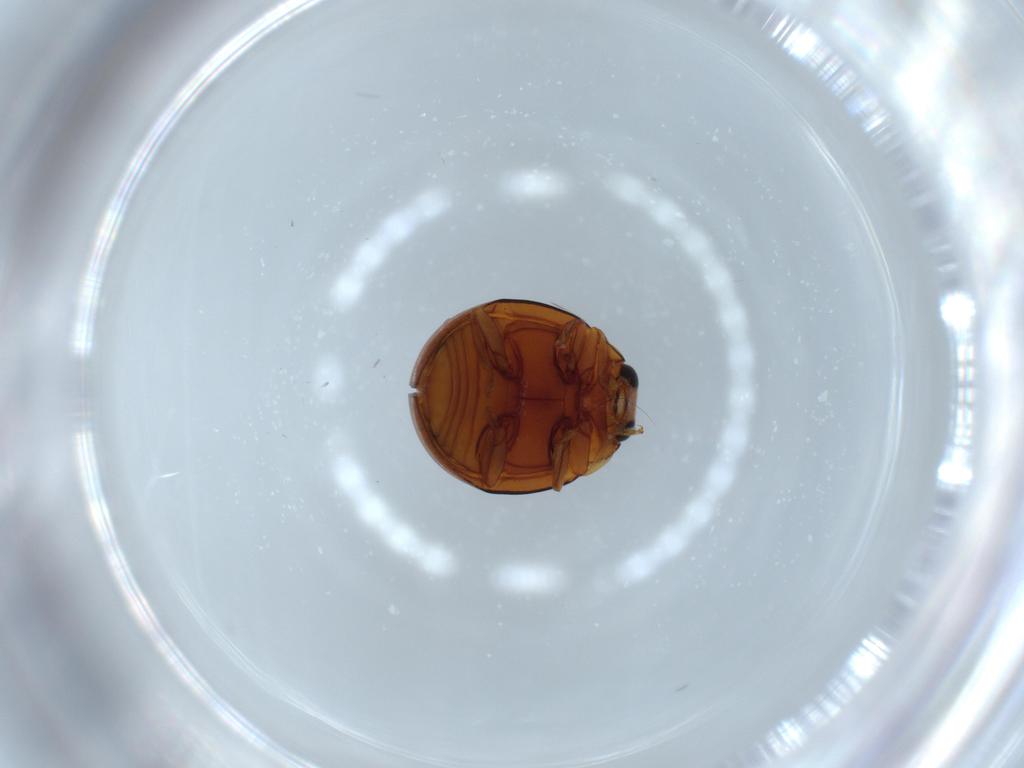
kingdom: Animalia
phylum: Arthropoda
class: Insecta
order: Coleoptera
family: Coccinellidae
